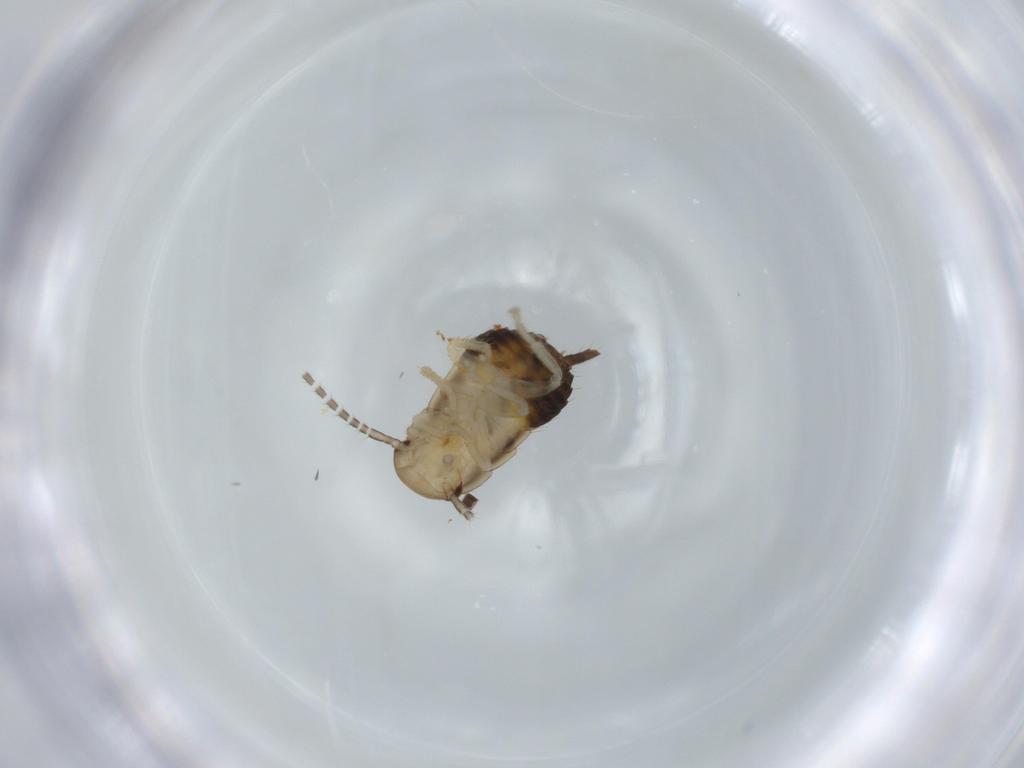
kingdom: Animalia
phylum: Arthropoda
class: Insecta
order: Blattodea
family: Ectobiidae
